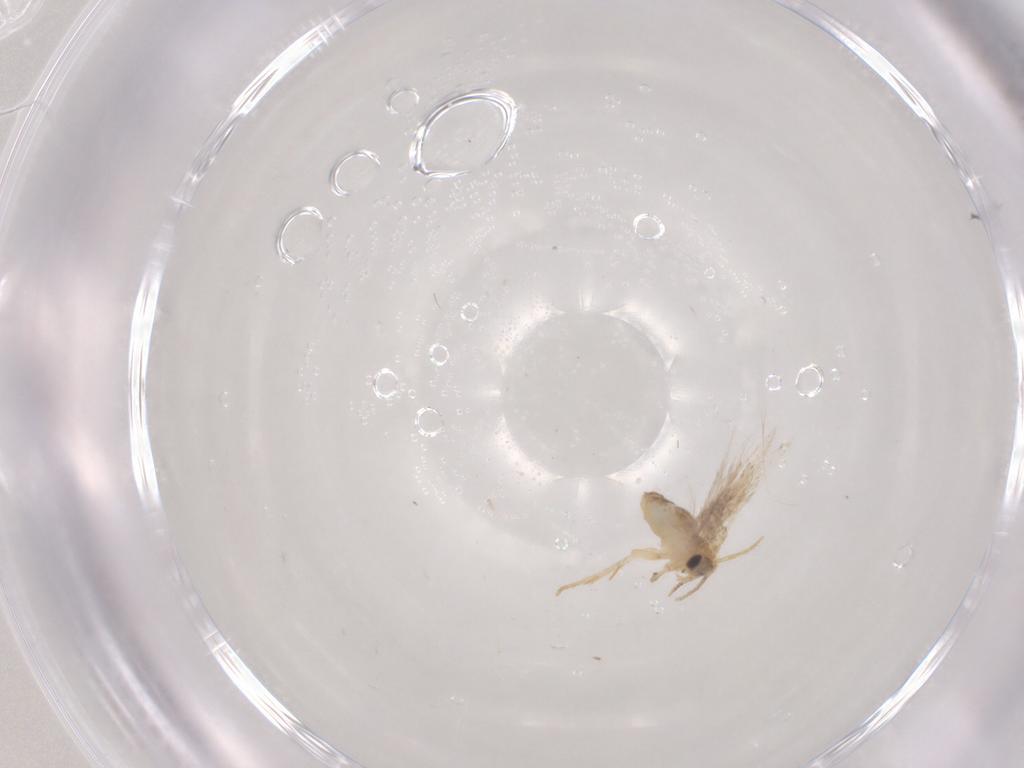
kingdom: Animalia
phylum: Arthropoda
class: Insecta
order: Lepidoptera
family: Nepticulidae
